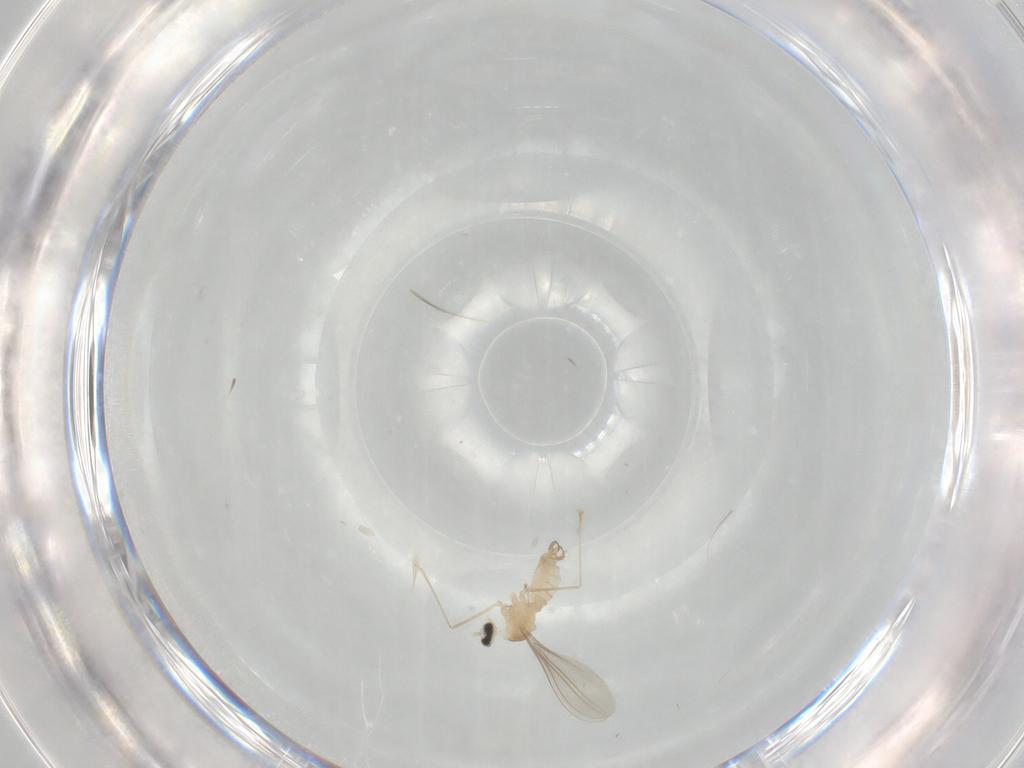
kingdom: Animalia
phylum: Arthropoda
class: Insecta
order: Diptera
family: Cecidomyiidae
